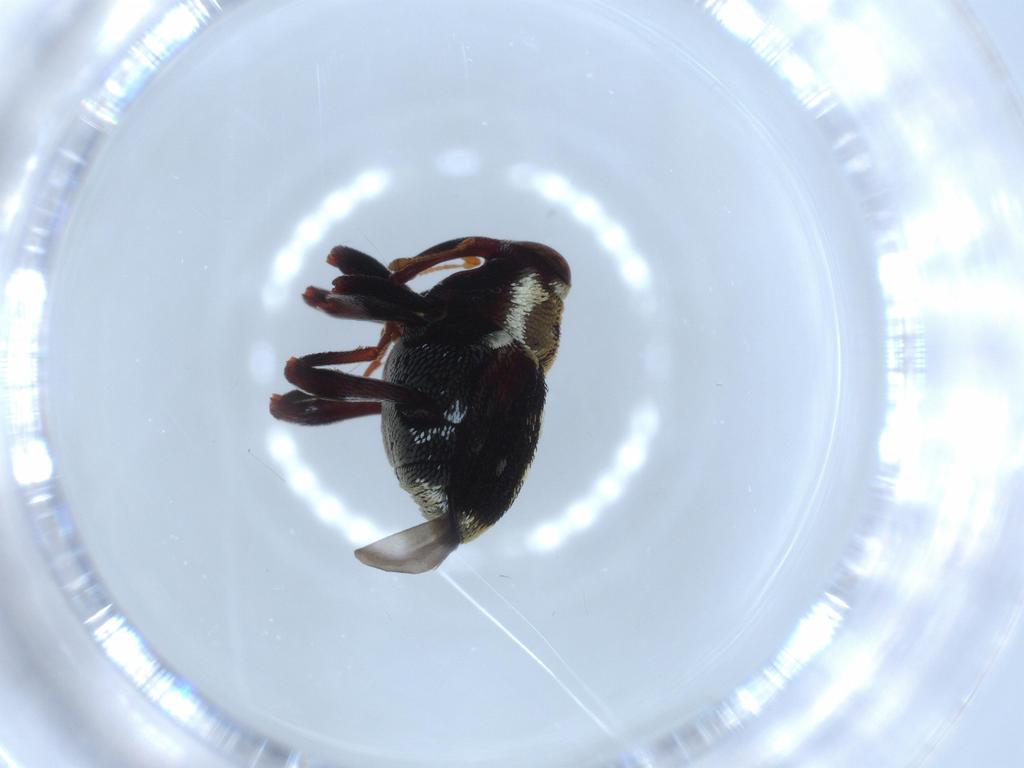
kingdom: Animalia
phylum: Arthropoda
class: Insecta
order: Coleoptera
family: Curculionidae
